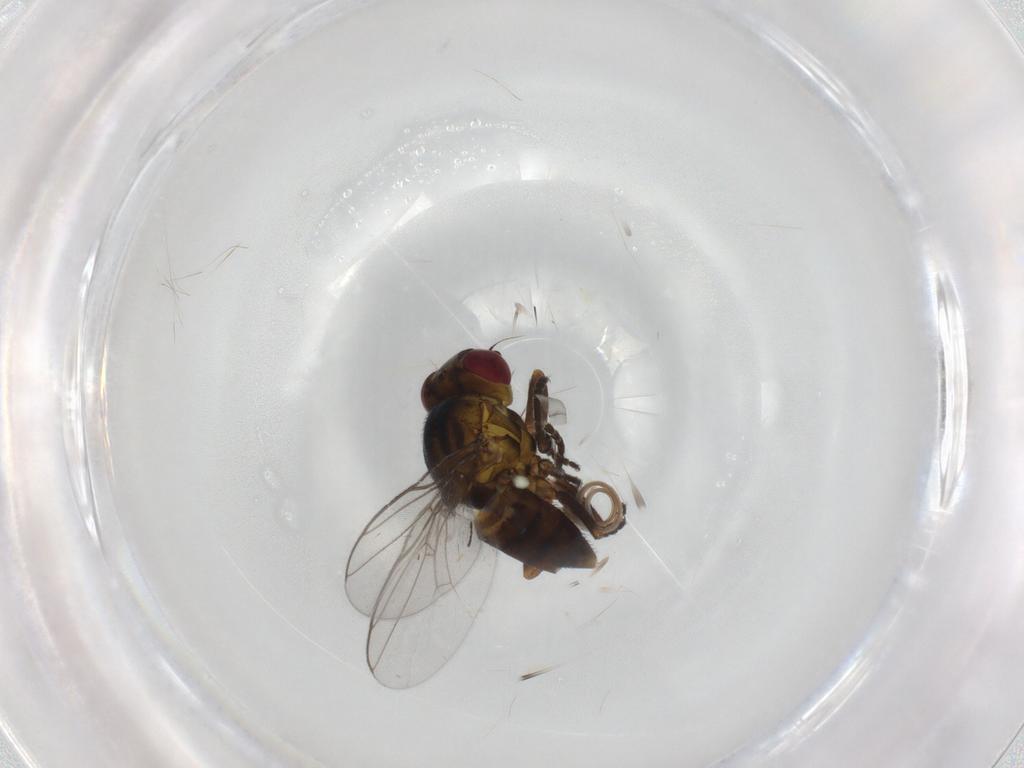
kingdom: Animalia
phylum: Arthropoda
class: Insecta
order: Diptera
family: Chloropidae
